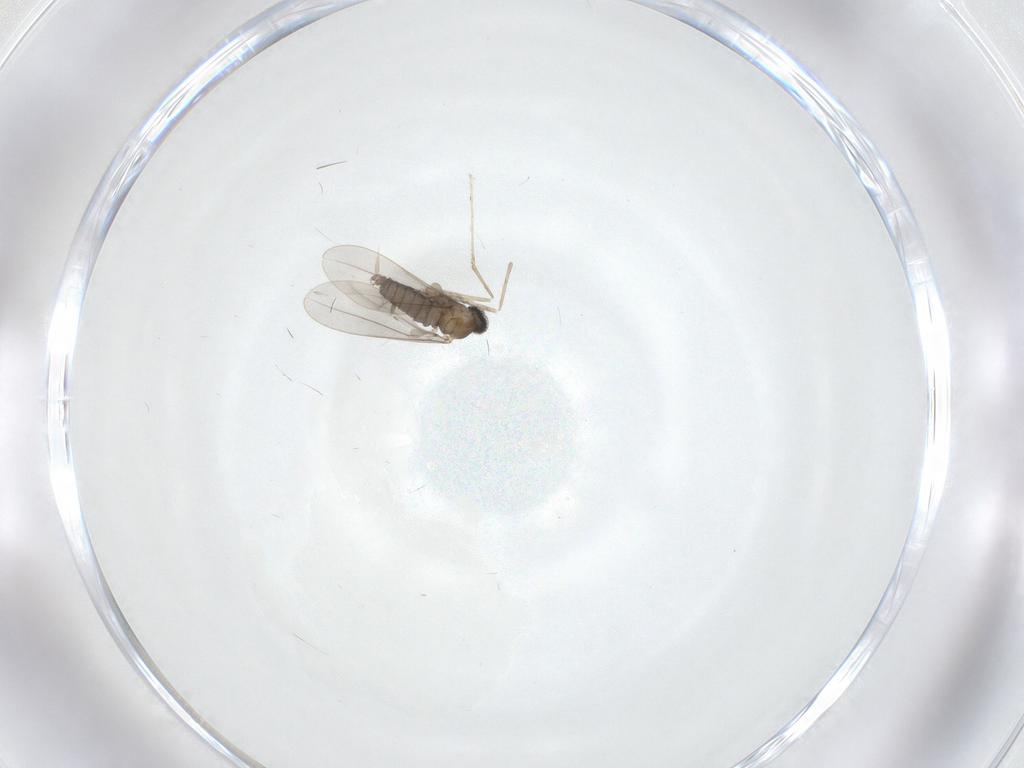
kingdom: Animalia
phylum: Arthropoda
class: Insecta
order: Diptera
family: Cecidomyiidae
